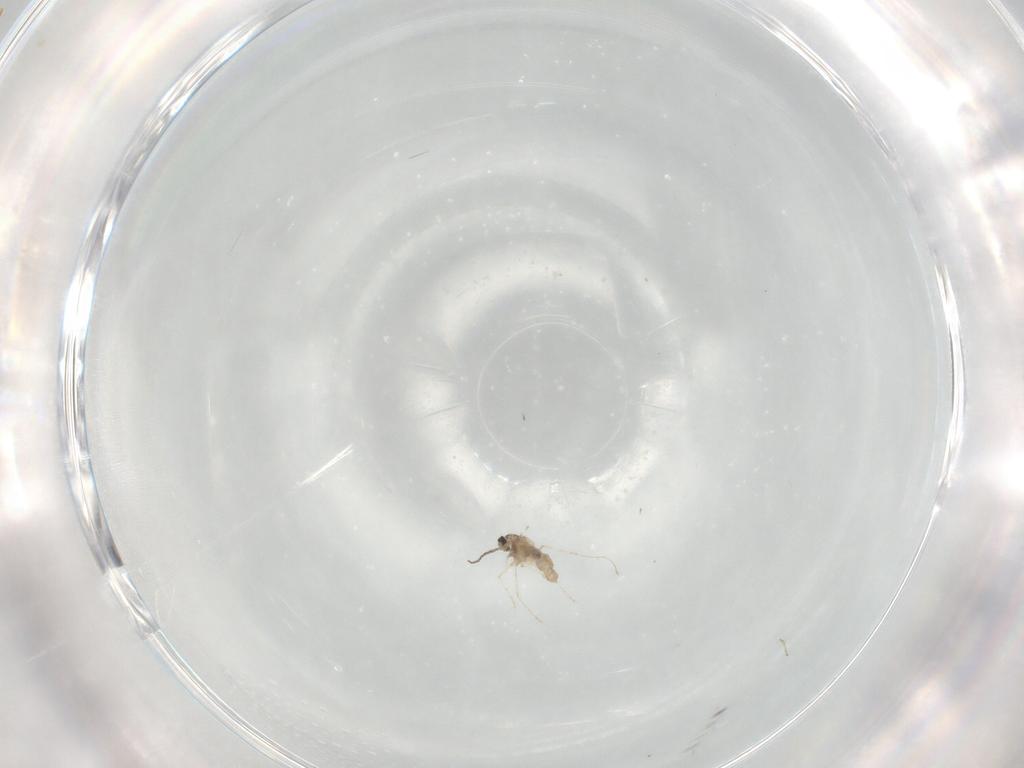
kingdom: Animalia
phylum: Arthropoda
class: Insecta
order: Diptera
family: Cecidomyiidae
